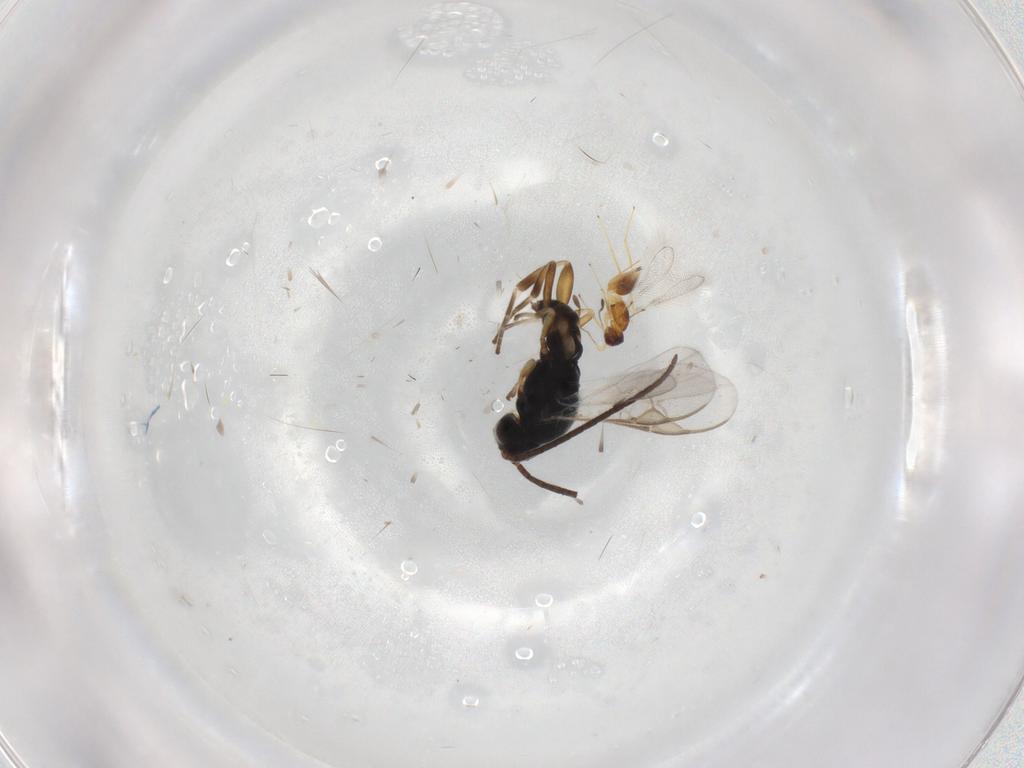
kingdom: Animalia
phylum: Arthropoda
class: Insecta
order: Hymenoptera
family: Braconidae
